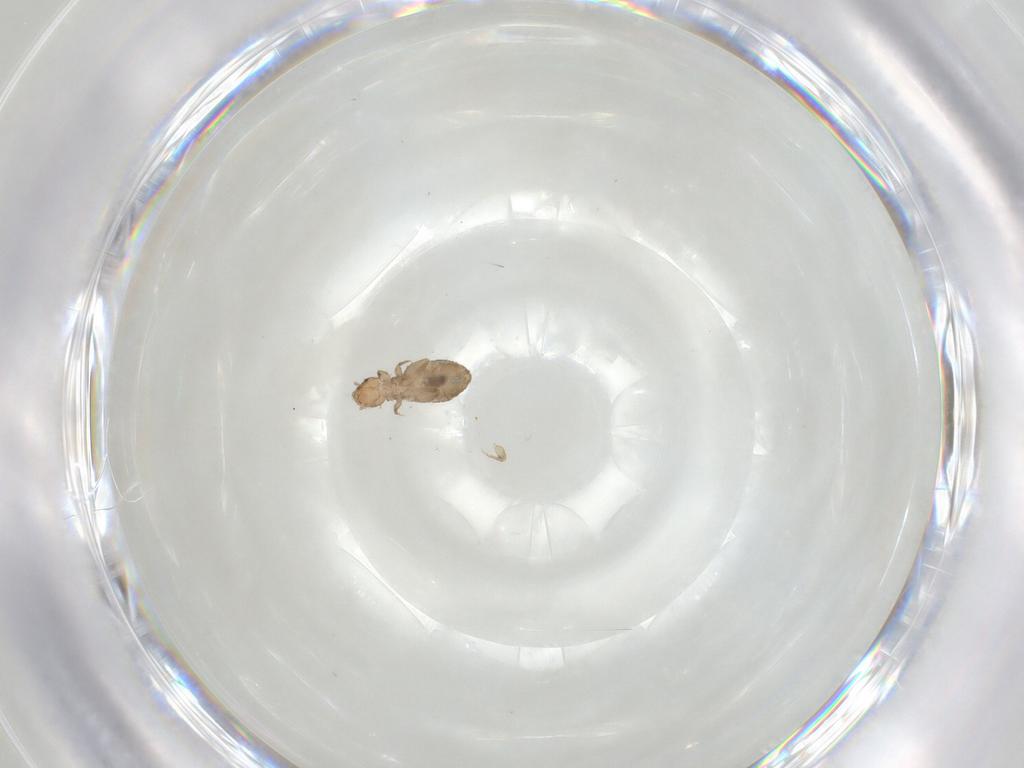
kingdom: Animalia
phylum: Arthropoda
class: Insecta
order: Psocodea
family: Liposcelididae
